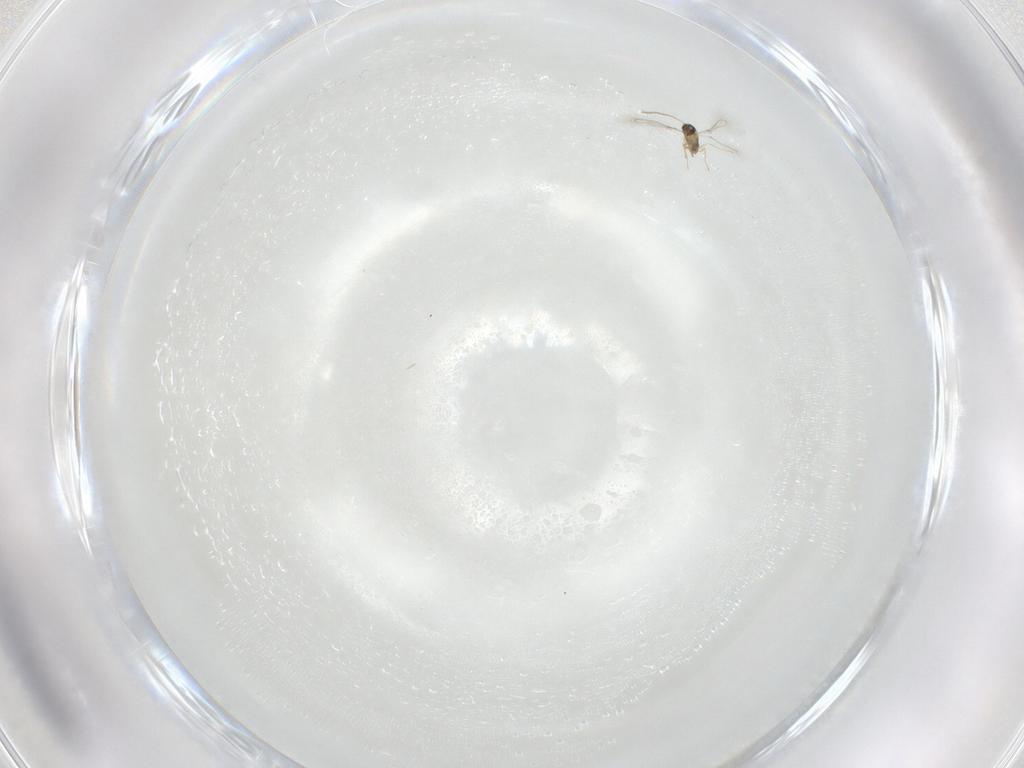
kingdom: Animalia
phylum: Arthropoda
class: Insecta
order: Hymenoptera
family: Mymaridae
